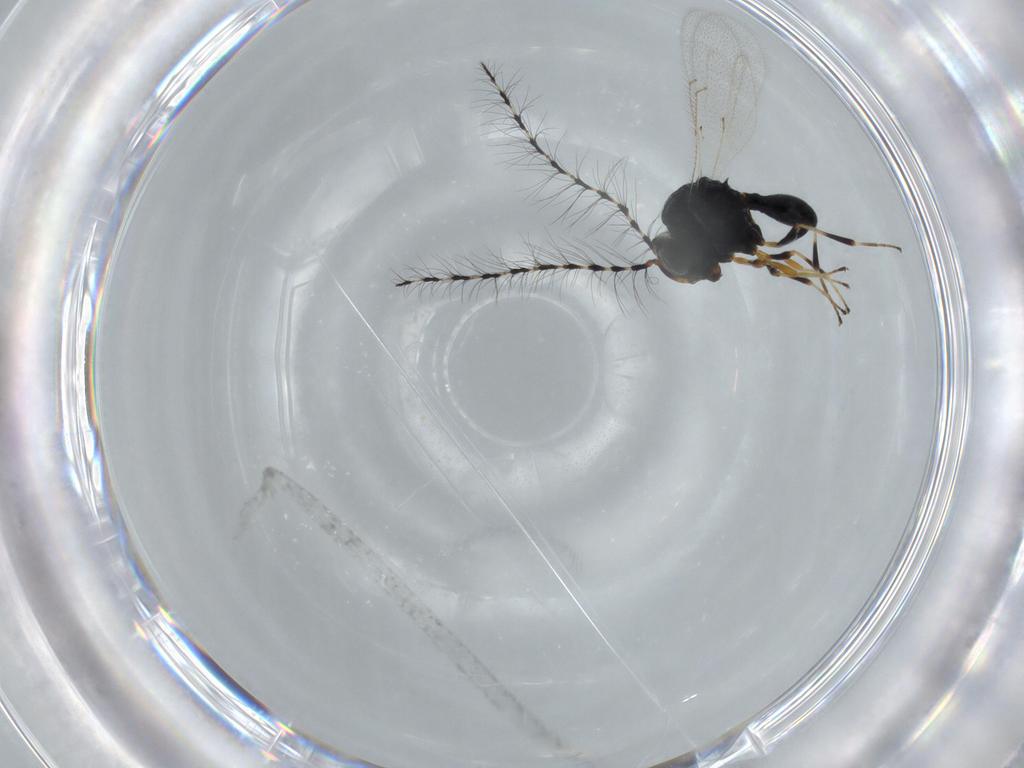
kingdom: Animalia
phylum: Arthropoda
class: Insecta
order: Hymenoptera
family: Scelionidae
